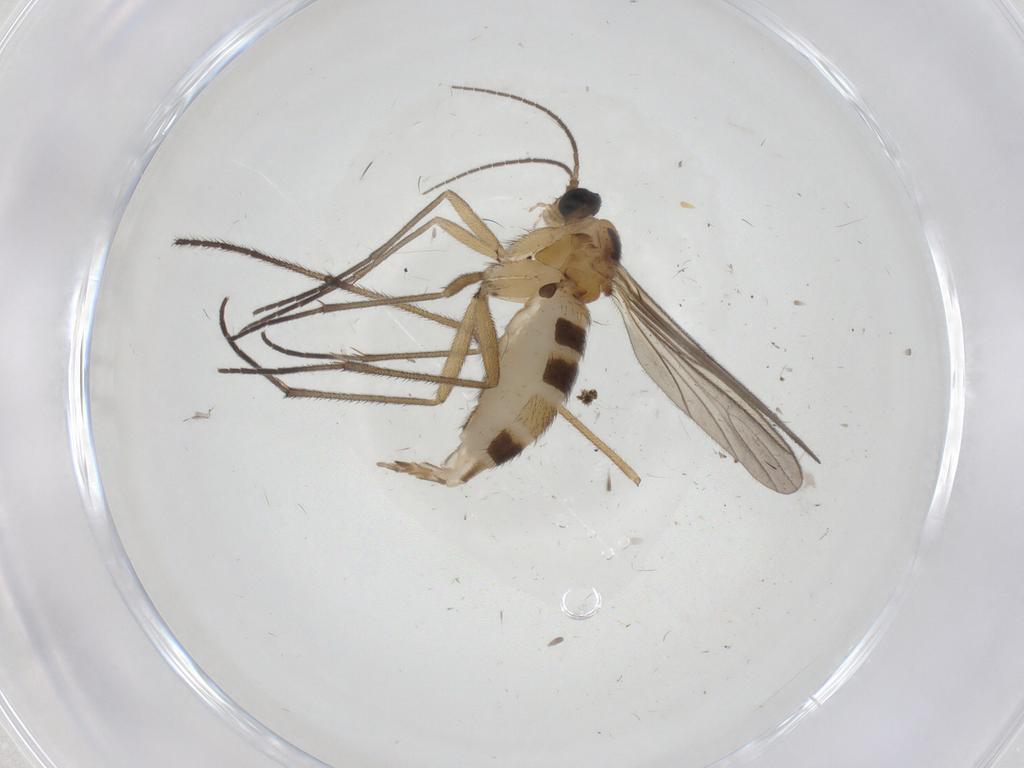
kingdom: Animalia
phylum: Arthropoda
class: Insecta
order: Diptera
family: Limoniidae
